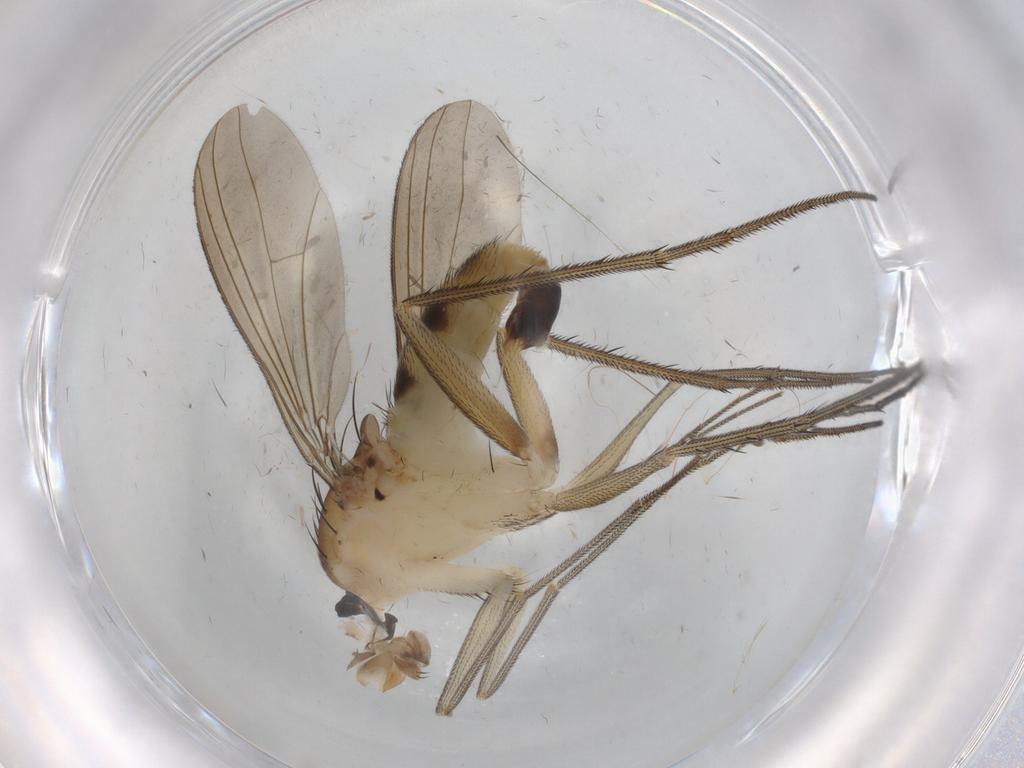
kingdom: Animalia
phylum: Arthropoda
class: Insecta
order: Diptera
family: Dolichopodidae
